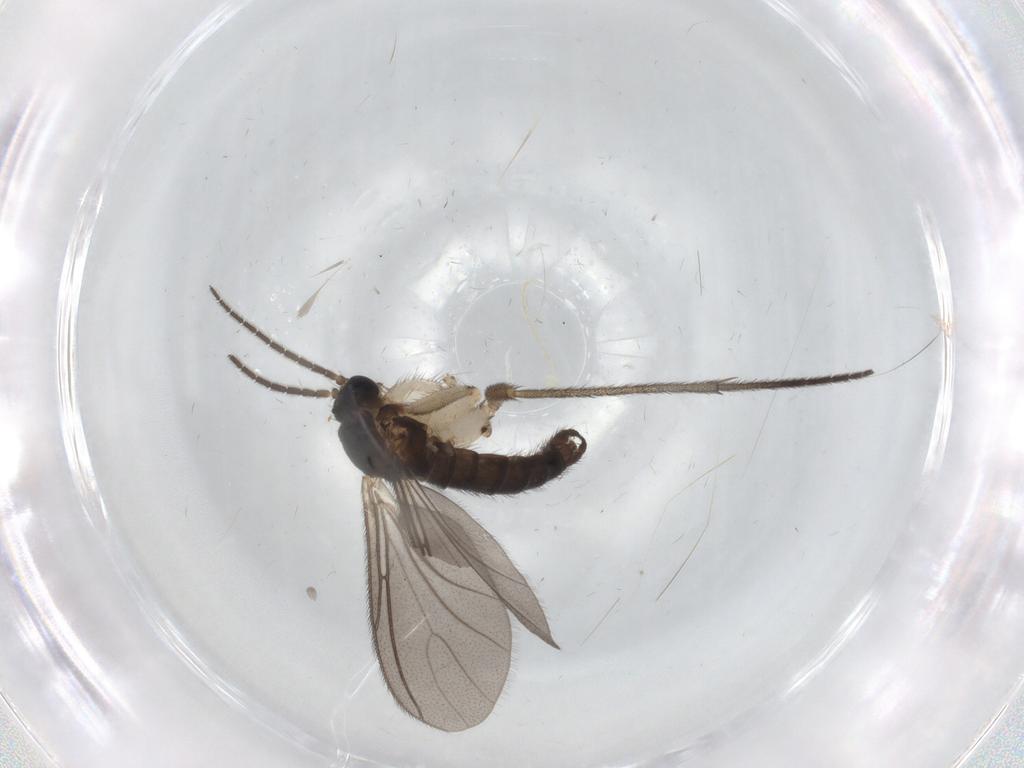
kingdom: Animalia
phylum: Arthropoda
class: Insecta
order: Diptera
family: Sciaridae
